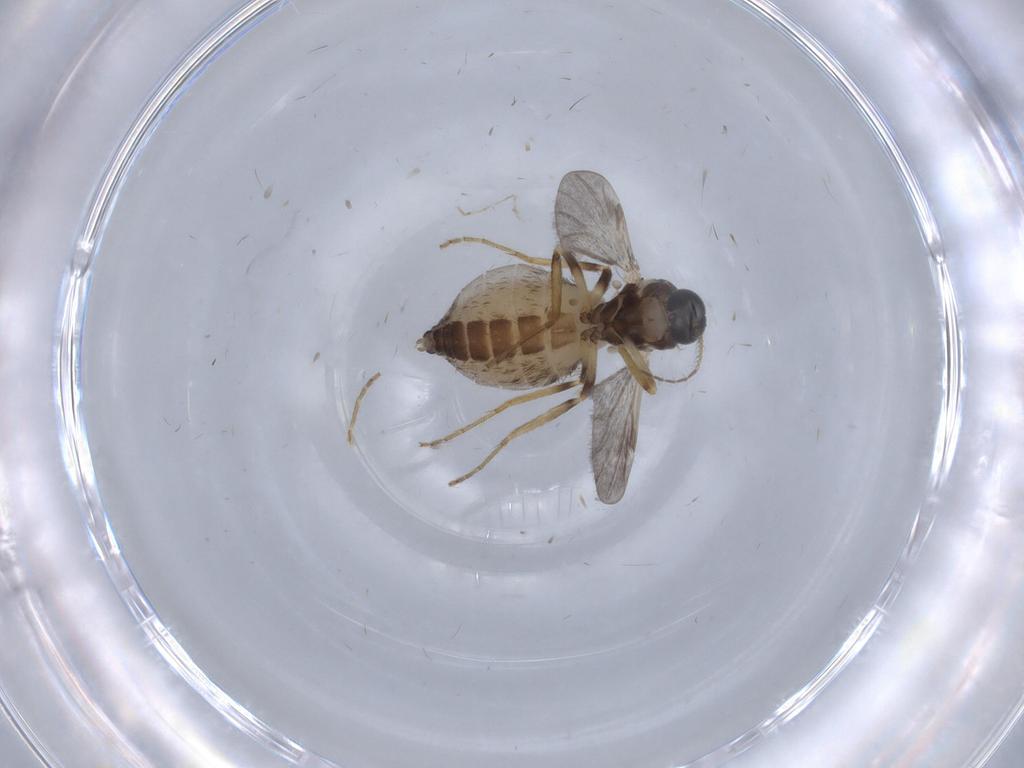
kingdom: Animalia
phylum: Arthropoda
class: Insecta
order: Diptera
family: Ceratopogonidae
